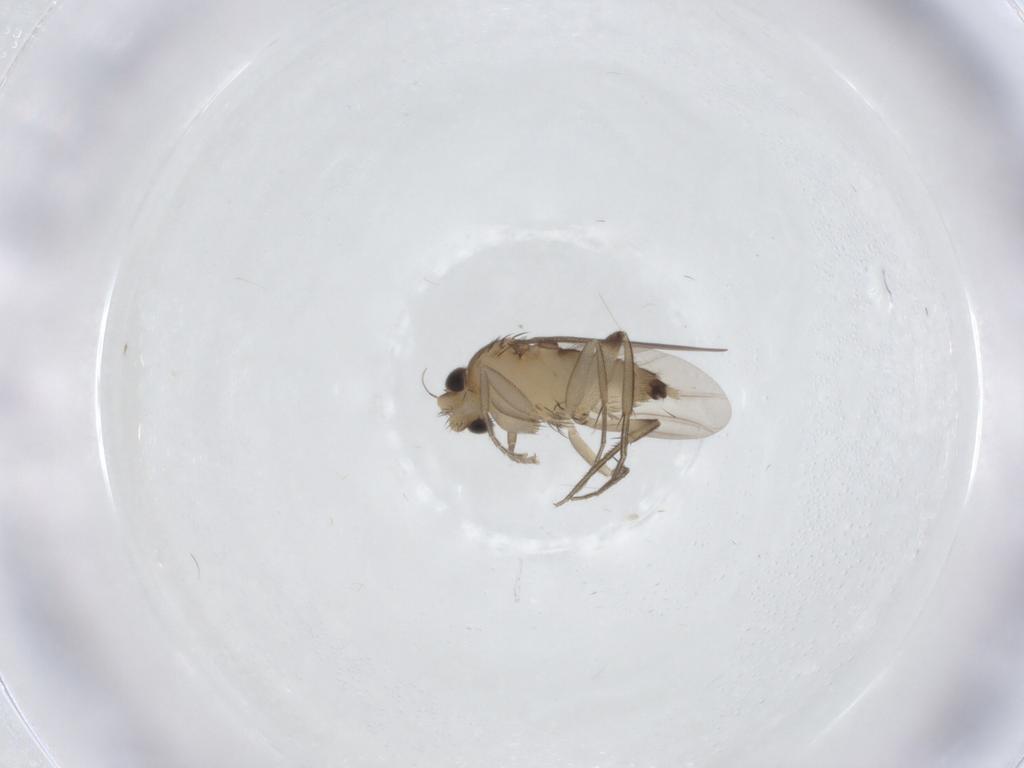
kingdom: Animalia
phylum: Arthropoda
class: Insecta
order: Diptera
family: Phoridae
